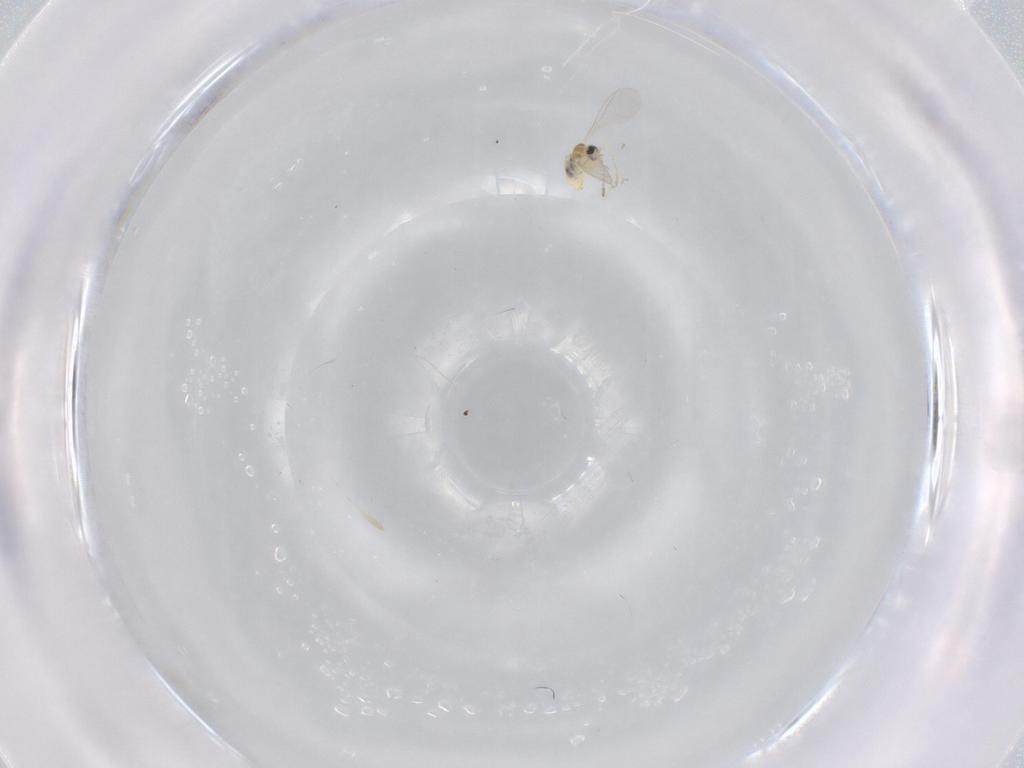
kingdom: Animalia
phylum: Arthropoda
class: Insecta
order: Diptera
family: Cecidomyiidae
